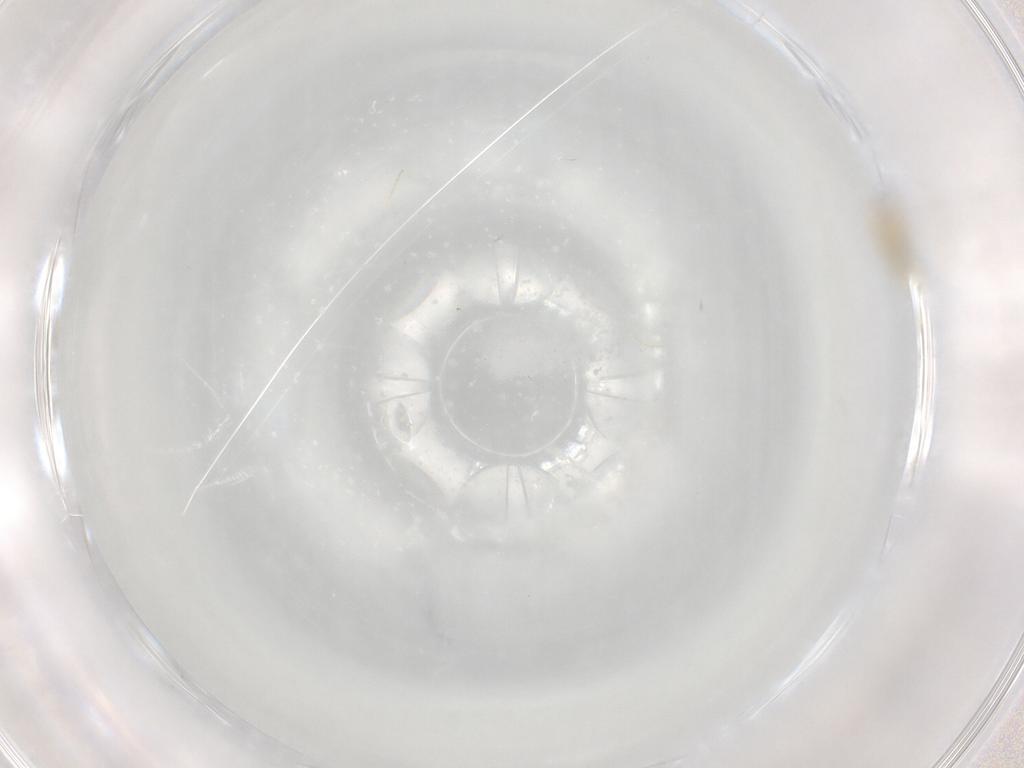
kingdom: Animalia
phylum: Arthropoda
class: Insecta
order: Diptera
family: Cecidomyiidae
